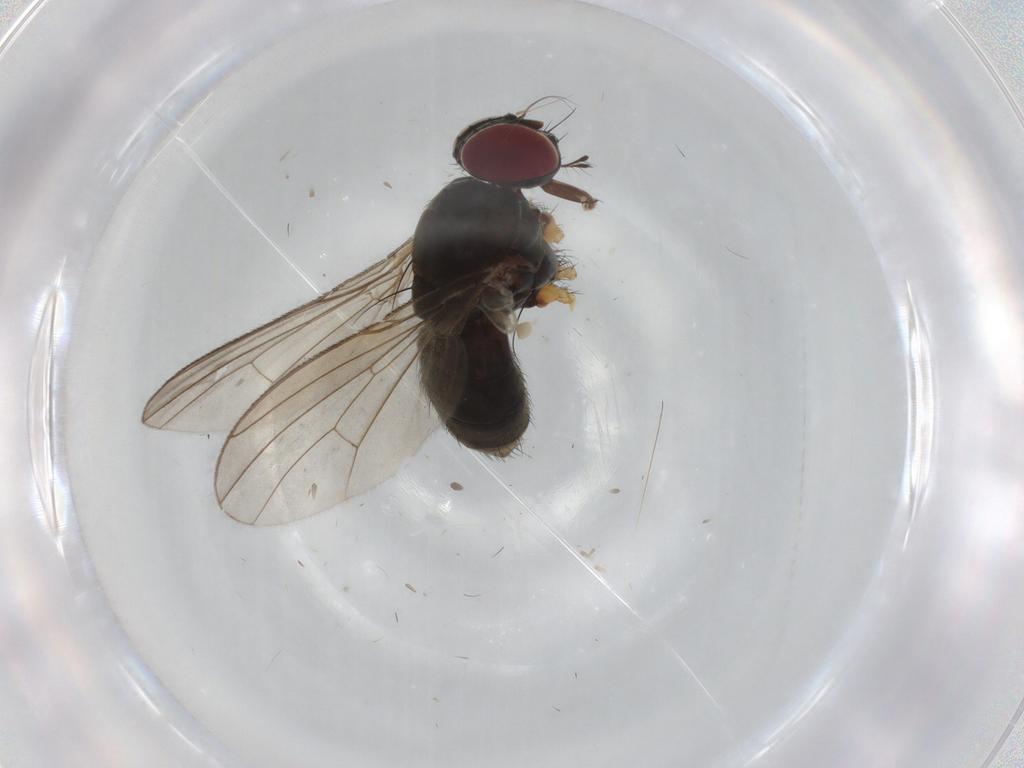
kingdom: Animalia
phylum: Arthropoda
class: Insecta
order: Diptera
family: Muscidae
